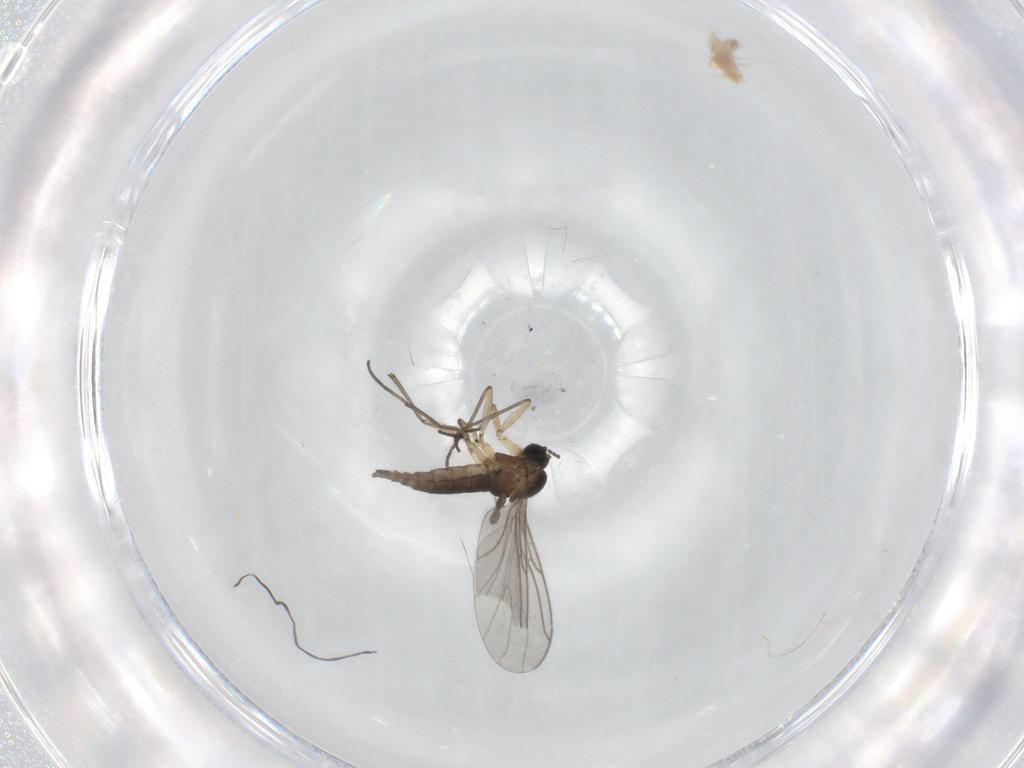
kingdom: Animalia
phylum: Arthropoda
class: Insecta
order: Diptera
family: Sciaridae
